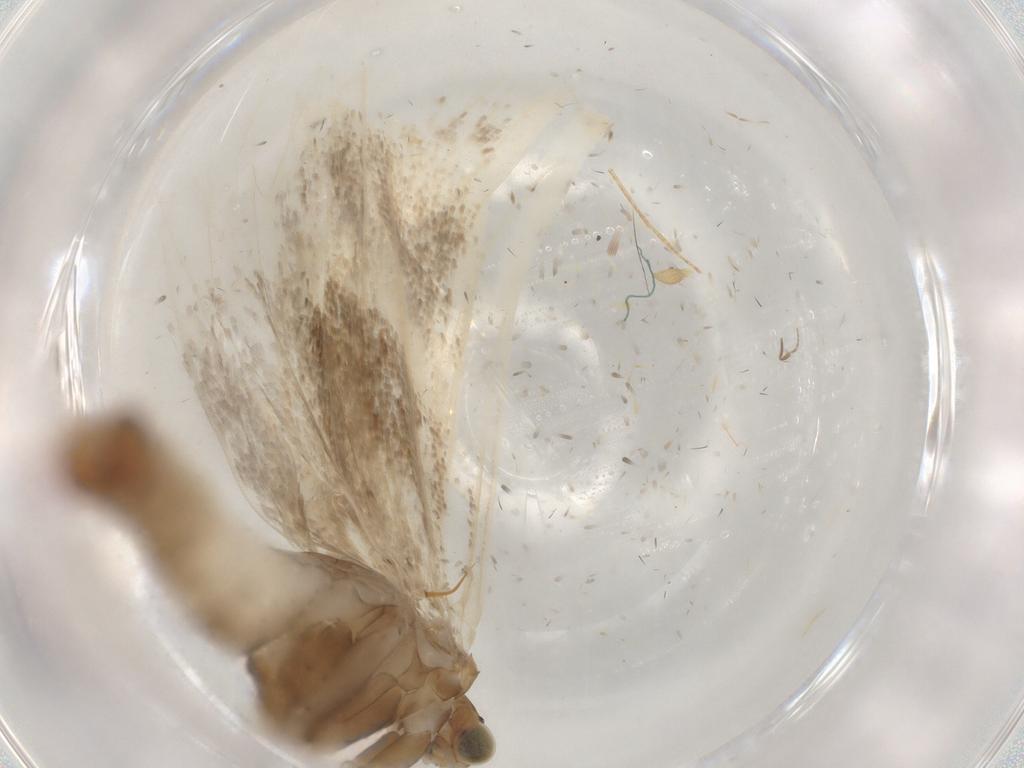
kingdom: Animalia
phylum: Arthropoda
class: Insecta
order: Lepidoptera
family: Plutellidae
